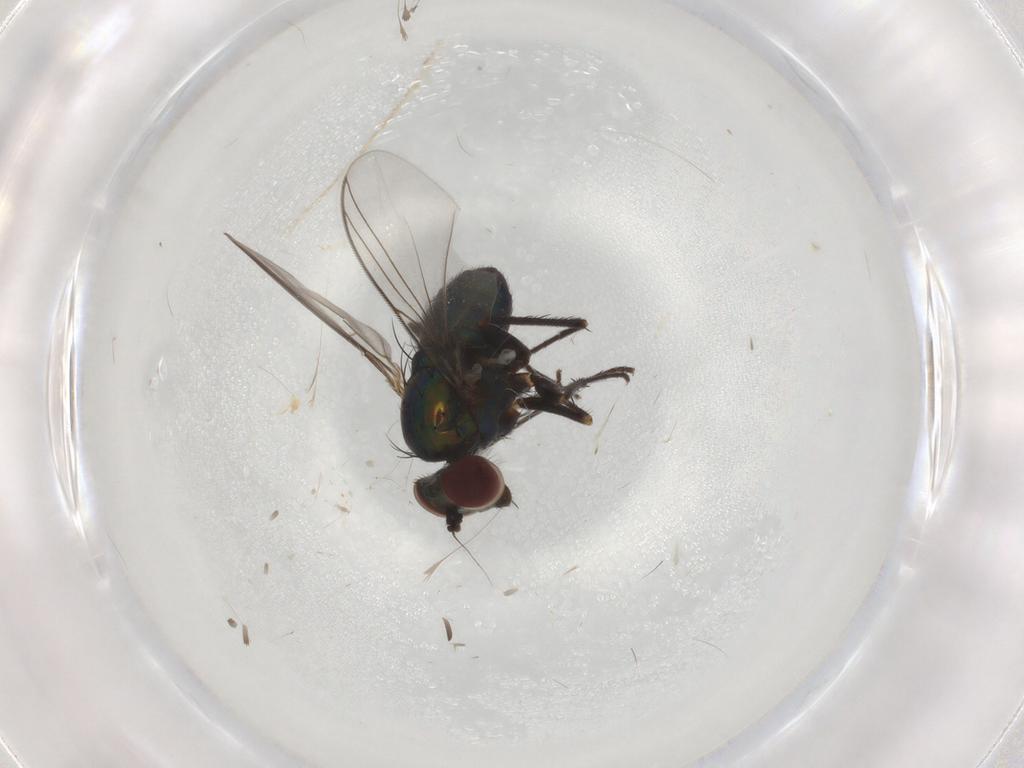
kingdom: Animalia
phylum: Arthropoda
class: Insecta
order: Diptera
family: Dolichopodidae
